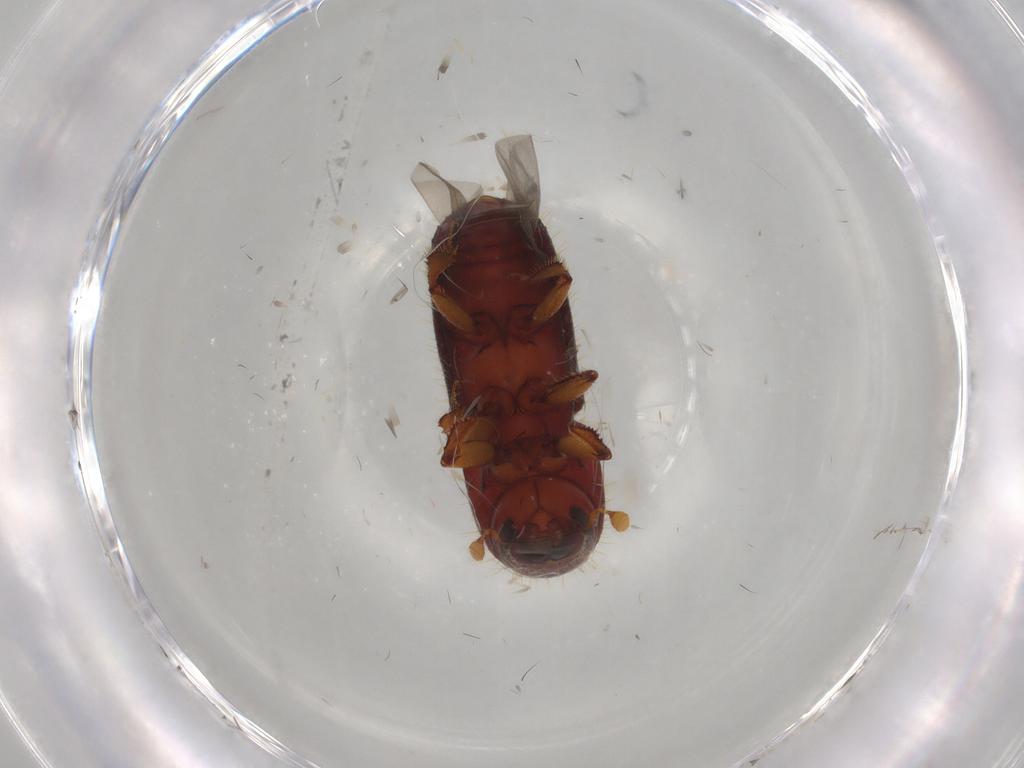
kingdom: Animalia
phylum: Arthropoda
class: Insecta
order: Coleoptera
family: Curculionidae
